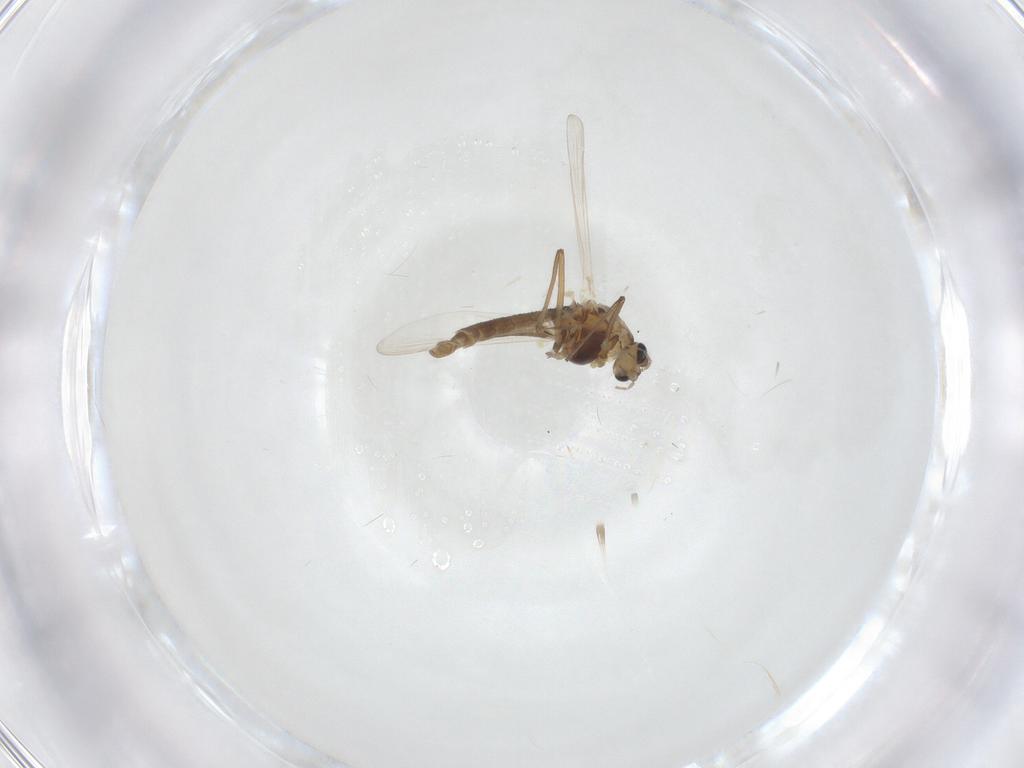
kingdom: Animalia
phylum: Arthropoda
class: Insecta
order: Diptera
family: Chironomidae
